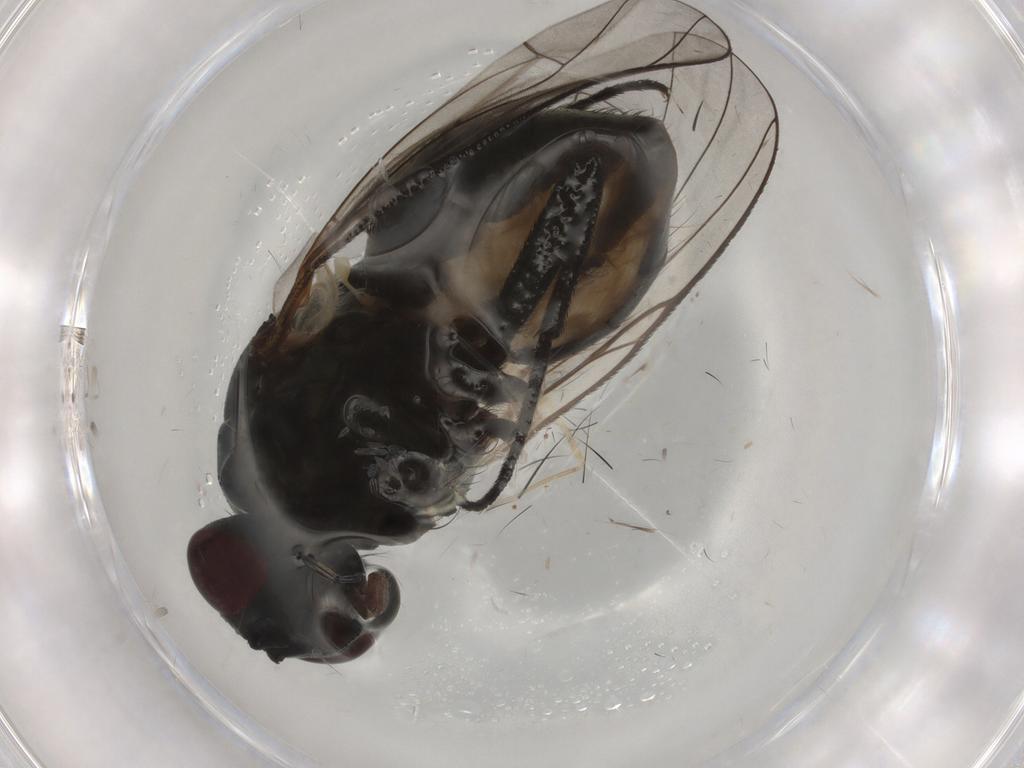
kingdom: Animalia
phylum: Arthropoda
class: Insecta
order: Diptera
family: Sciaridae
